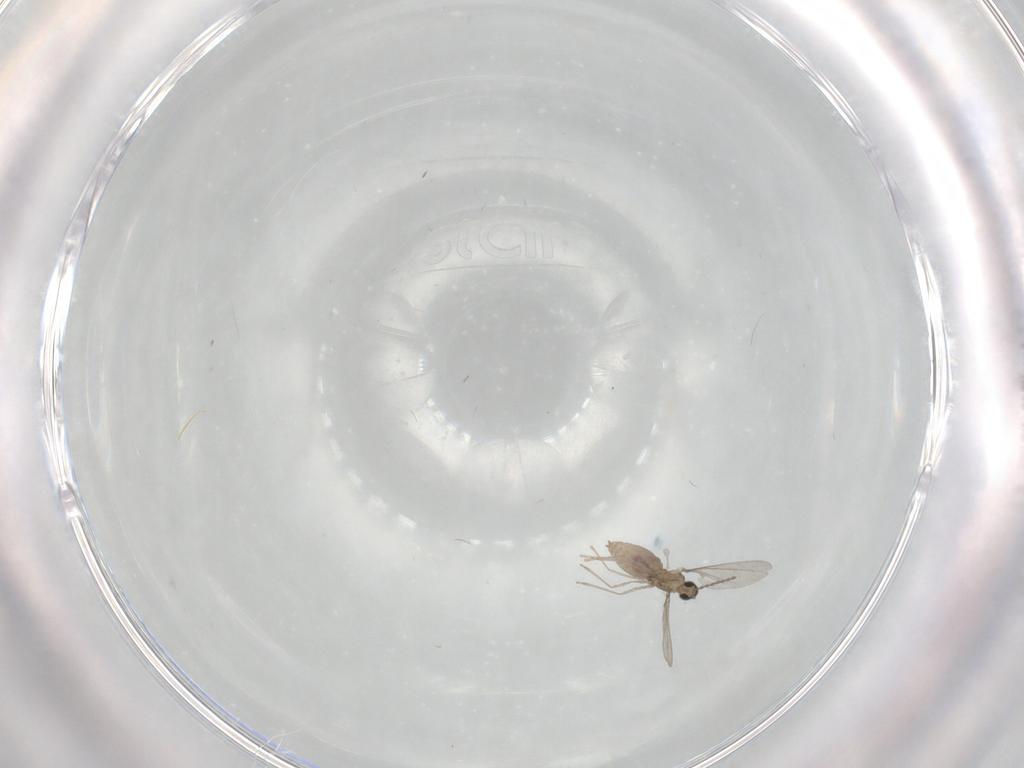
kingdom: Animalia
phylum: Arthropoda
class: Insecta
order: Diptera
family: Cecidomyiidae
